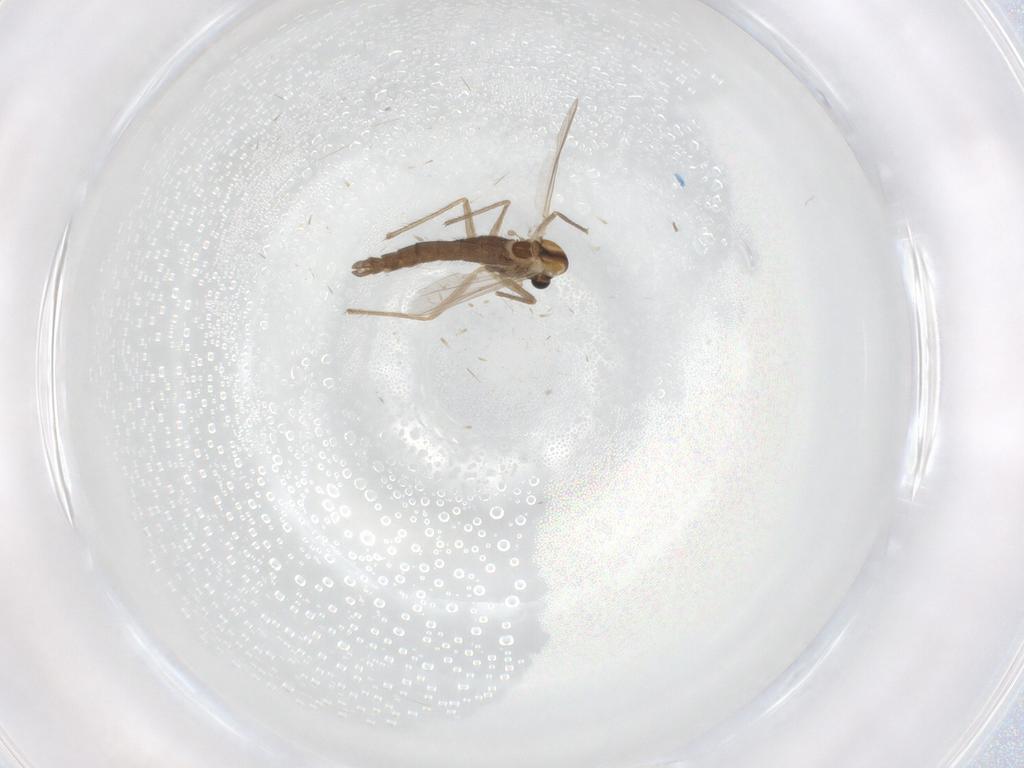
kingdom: Animalia
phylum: Arthropoda
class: Insecta
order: Diptera
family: Chironomidae
